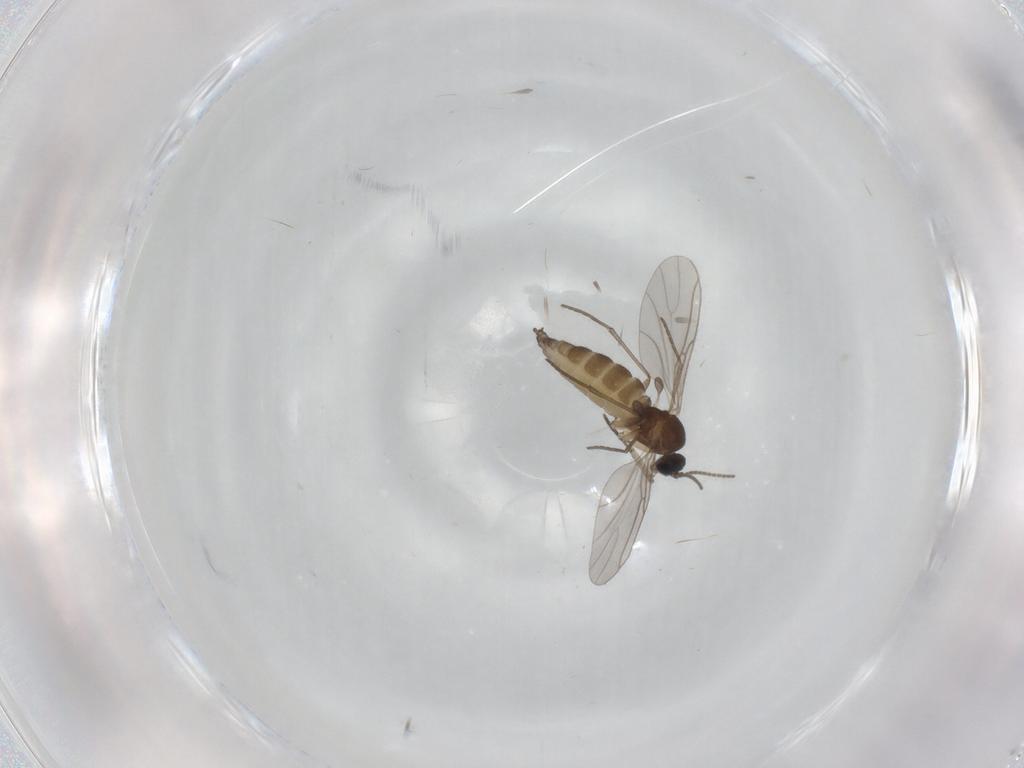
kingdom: Animalia
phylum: Arthropoda
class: Insecta
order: Diptera
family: Sciaridae
